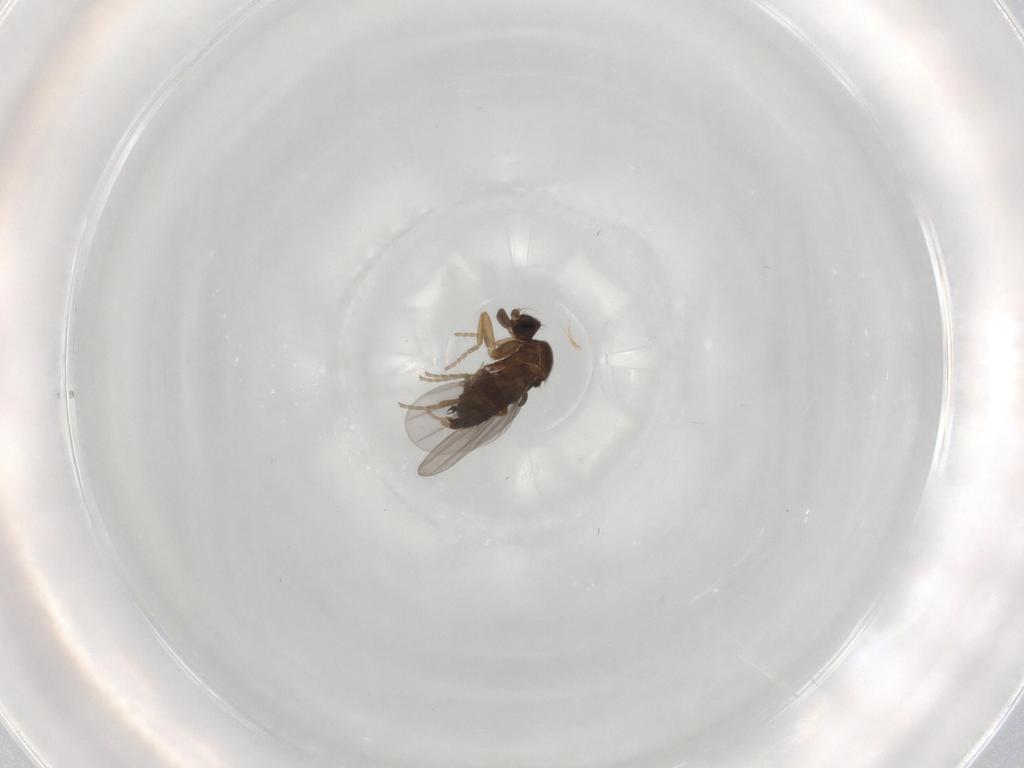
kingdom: Animalia
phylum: Arthropoda
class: Insecta
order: Diptera
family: Phoridae
